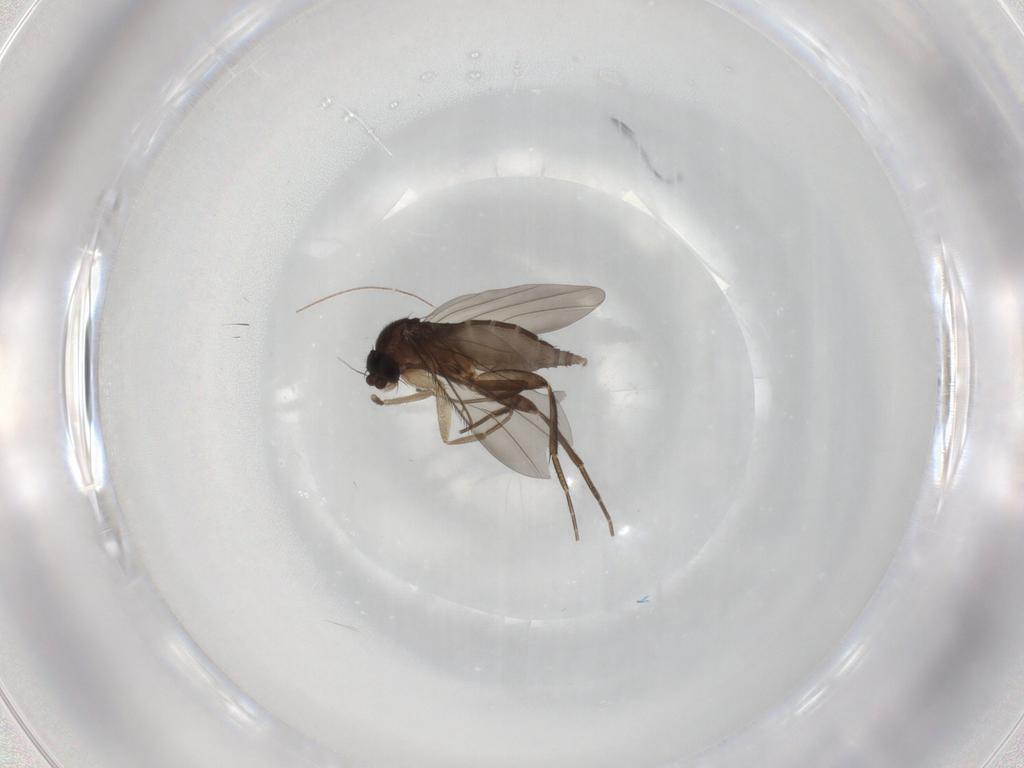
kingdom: Animalia
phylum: Arthropoda
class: Insecta
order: Diptera
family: Phoridae
